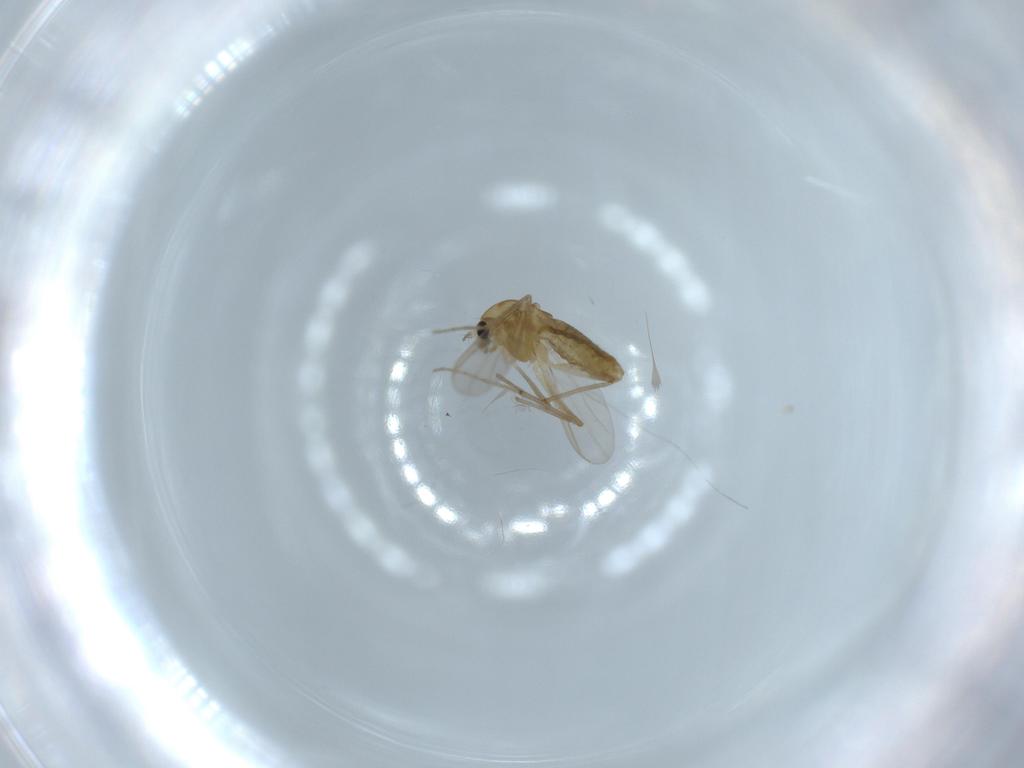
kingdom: Animalia
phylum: Arthropoda
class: Insecta
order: Diptera
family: Chironomidae
